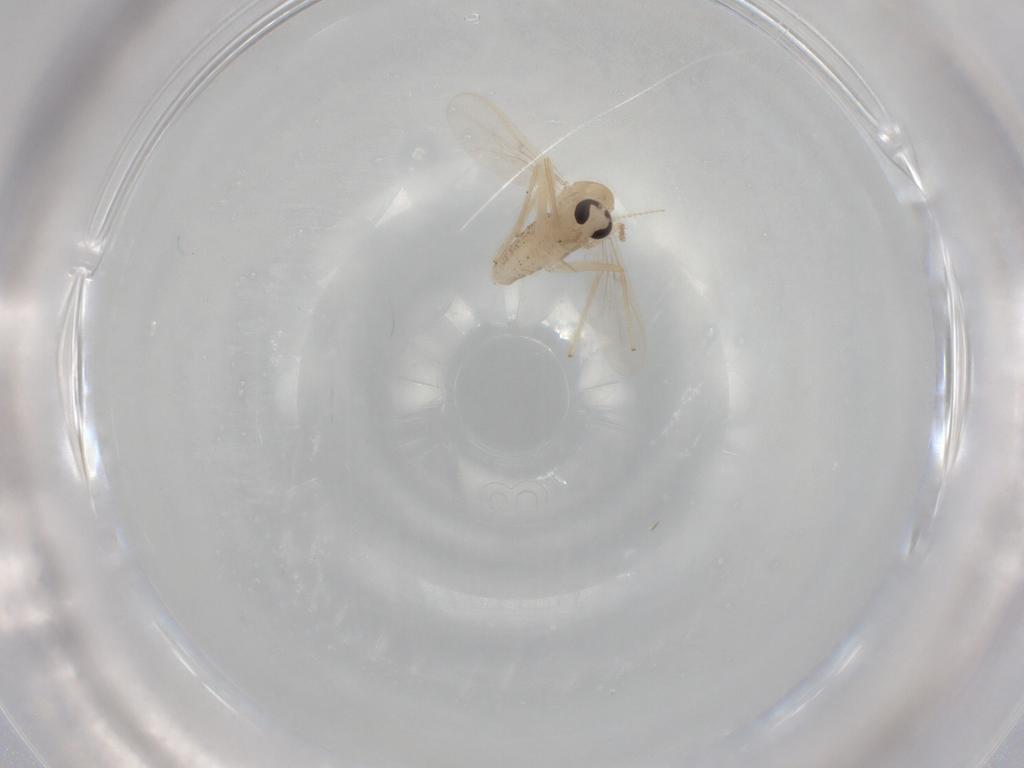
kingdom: Animalia
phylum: Arthropoda
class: Insecta
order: Diptera
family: Chironomidae
